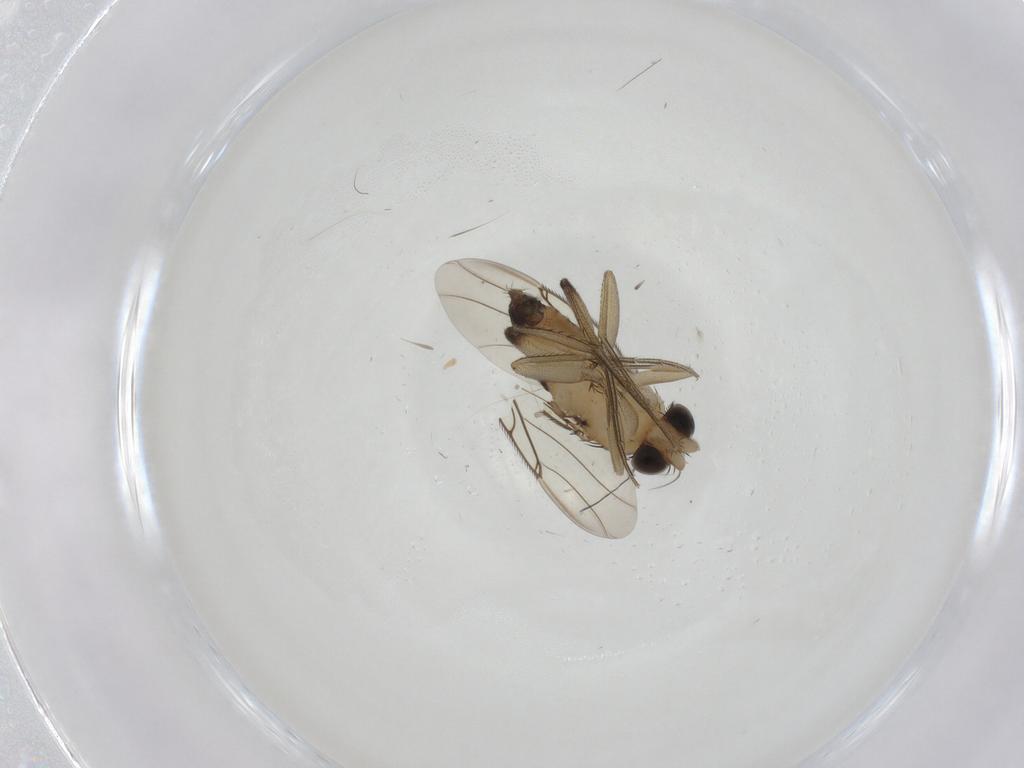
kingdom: Animalia
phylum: Arthropoda
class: Insecta
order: Diptera
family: Phoridae
